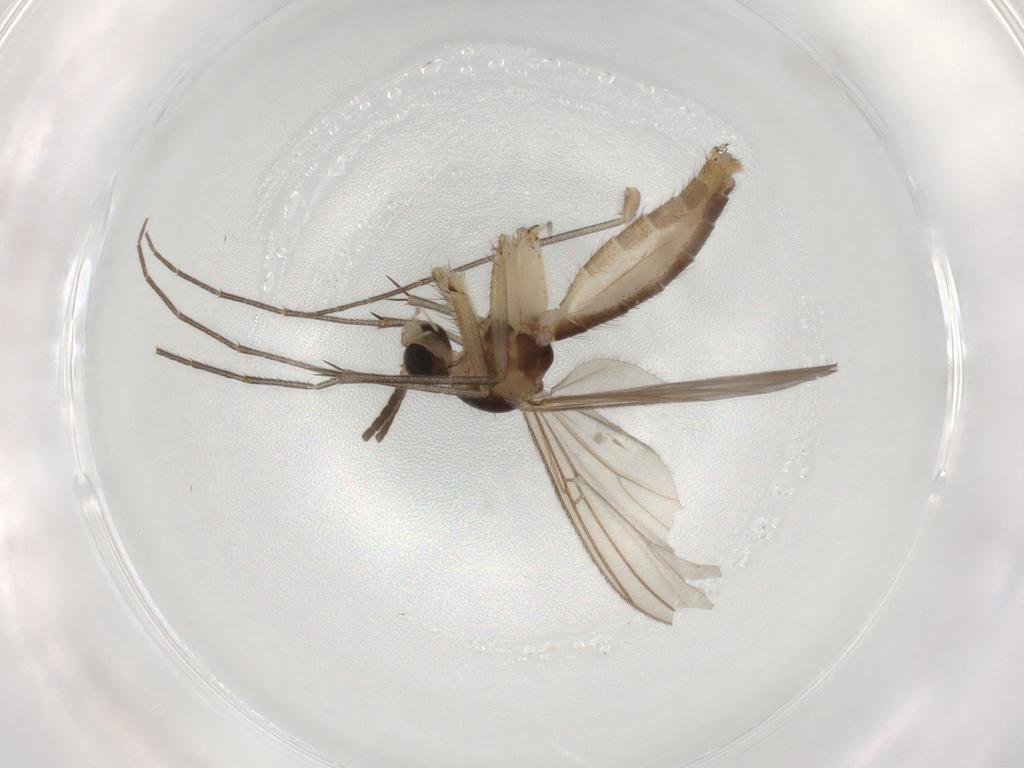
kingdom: Animalia
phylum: Arthropoda
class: Insecta
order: Diptera
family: Ceratopogonidae
